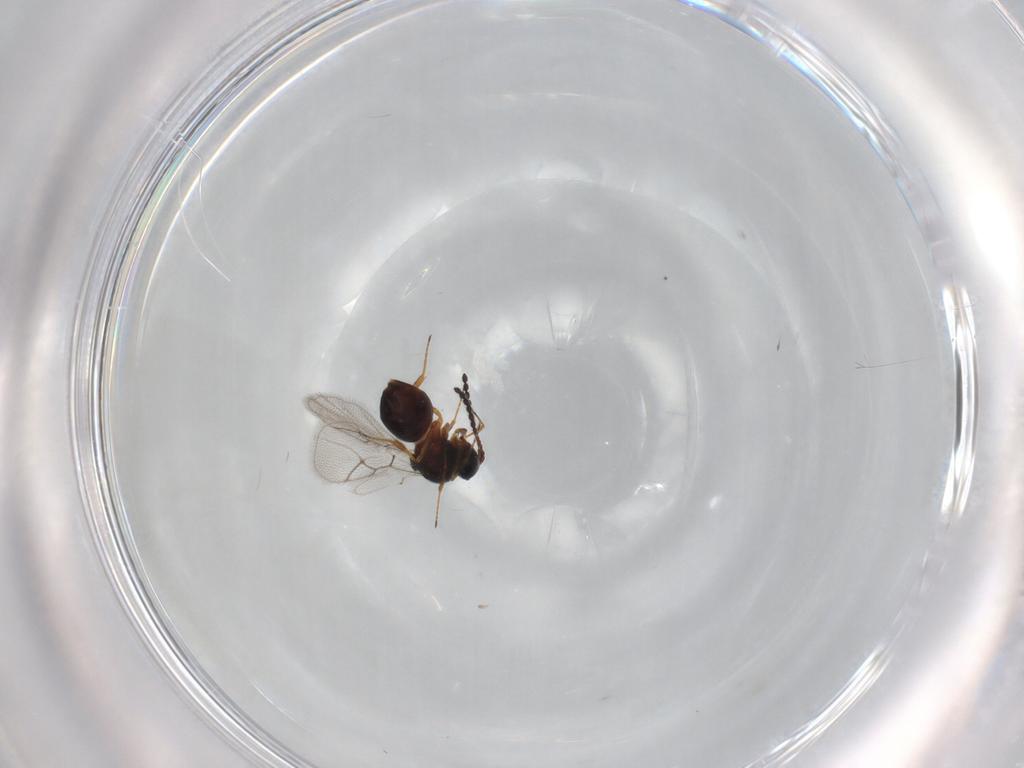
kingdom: Animalia
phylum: Arthropoda
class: Insecta
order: Hymenoptera
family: Figitidae
